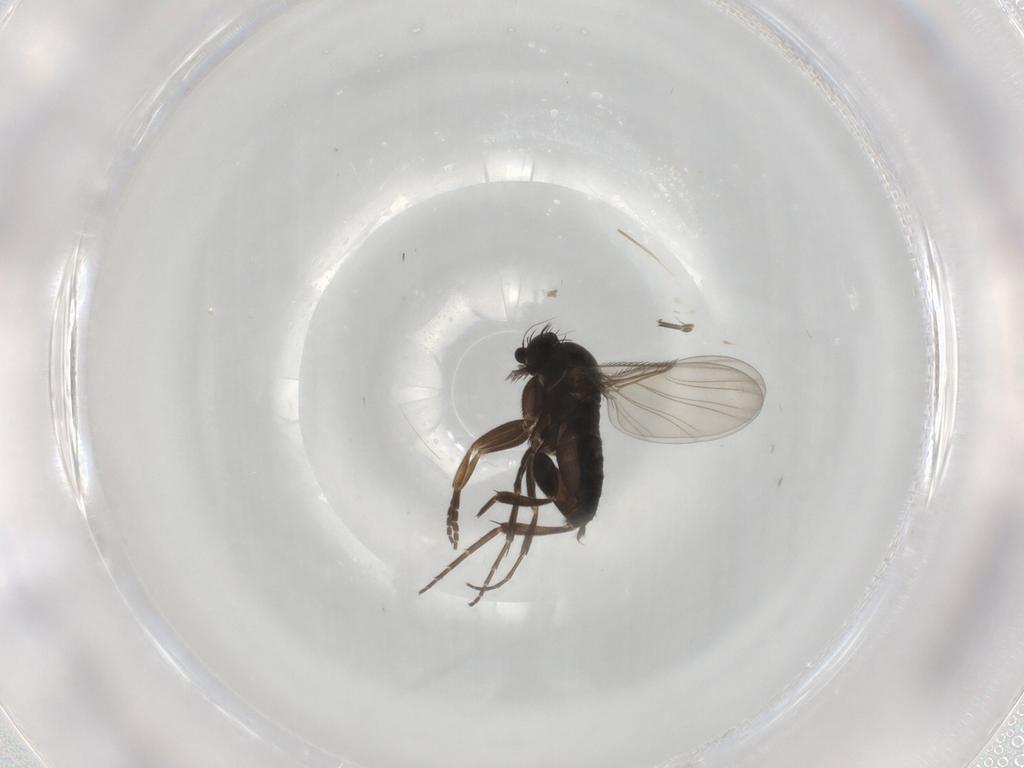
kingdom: Animalia
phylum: Arthropoda
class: Insecta
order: Diptera
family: Phoridae
